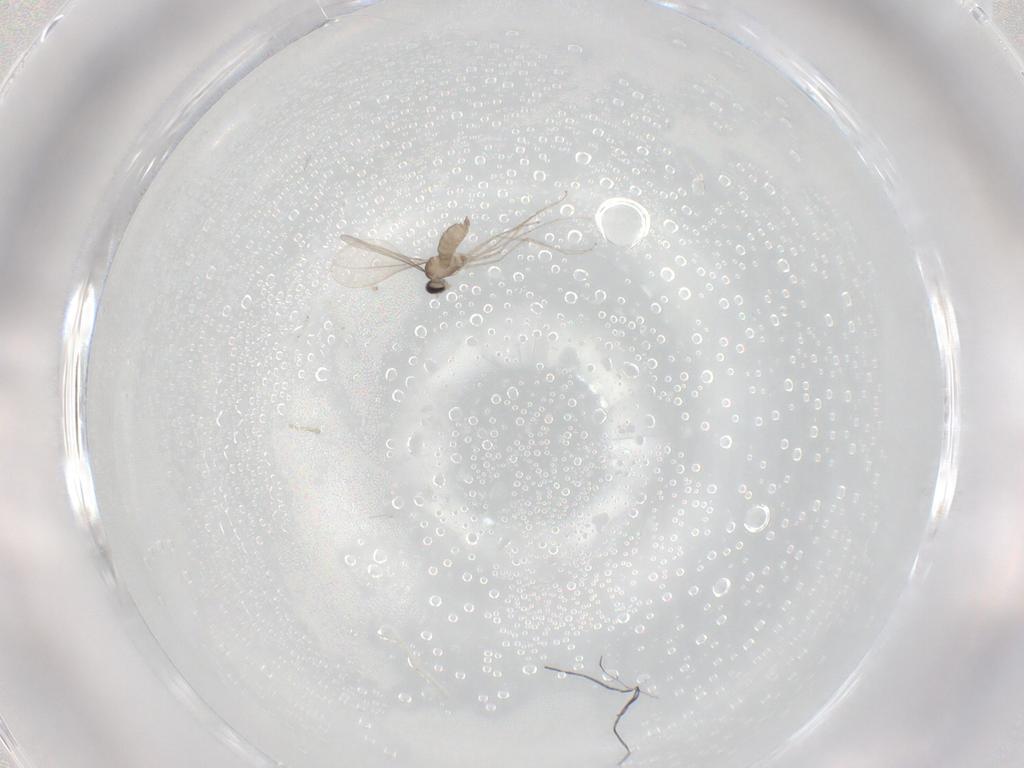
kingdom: Animalia
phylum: Arthropoda
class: Insecta
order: Diptera
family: Cecidomyiidae
